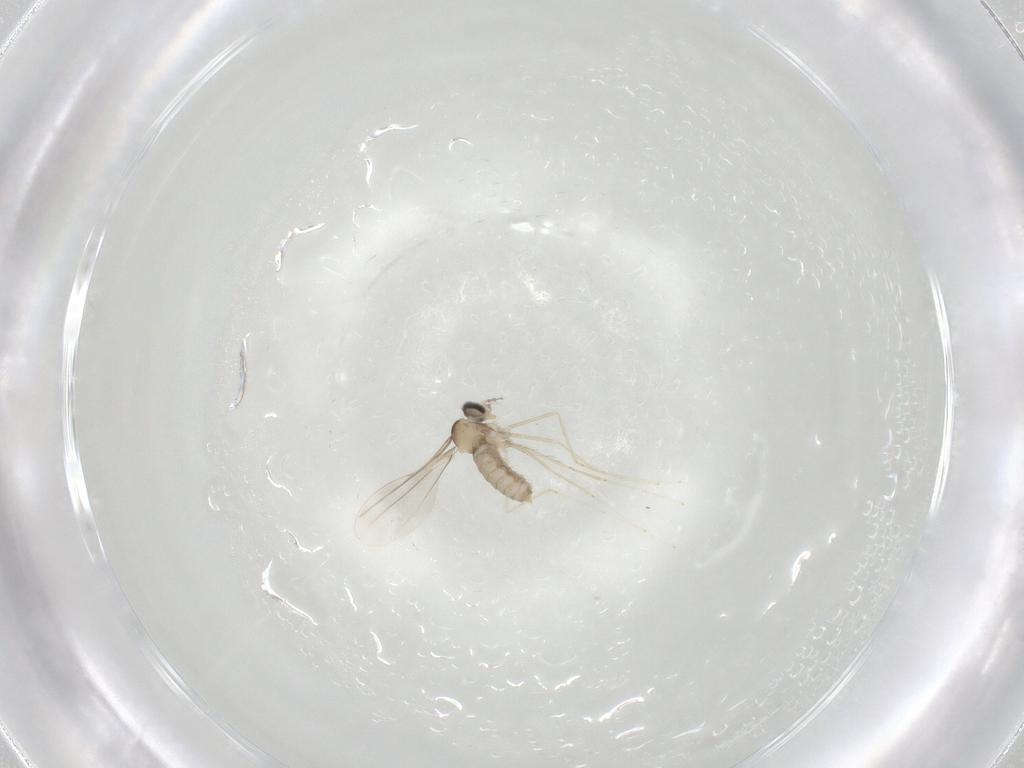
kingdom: Animalia
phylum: Arthropoda
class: Insecta
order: Diptera
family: Cecidomyiidae
